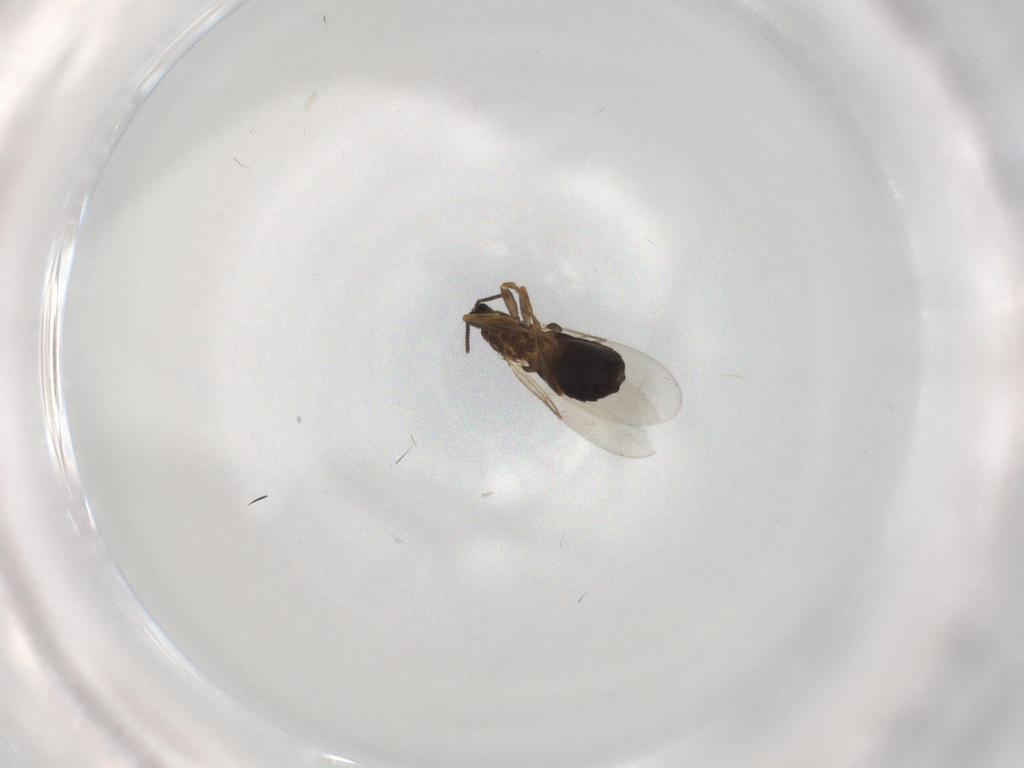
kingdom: Animalia
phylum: Arthropoda
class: Insecta
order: Diptera
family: Scatopsidae
